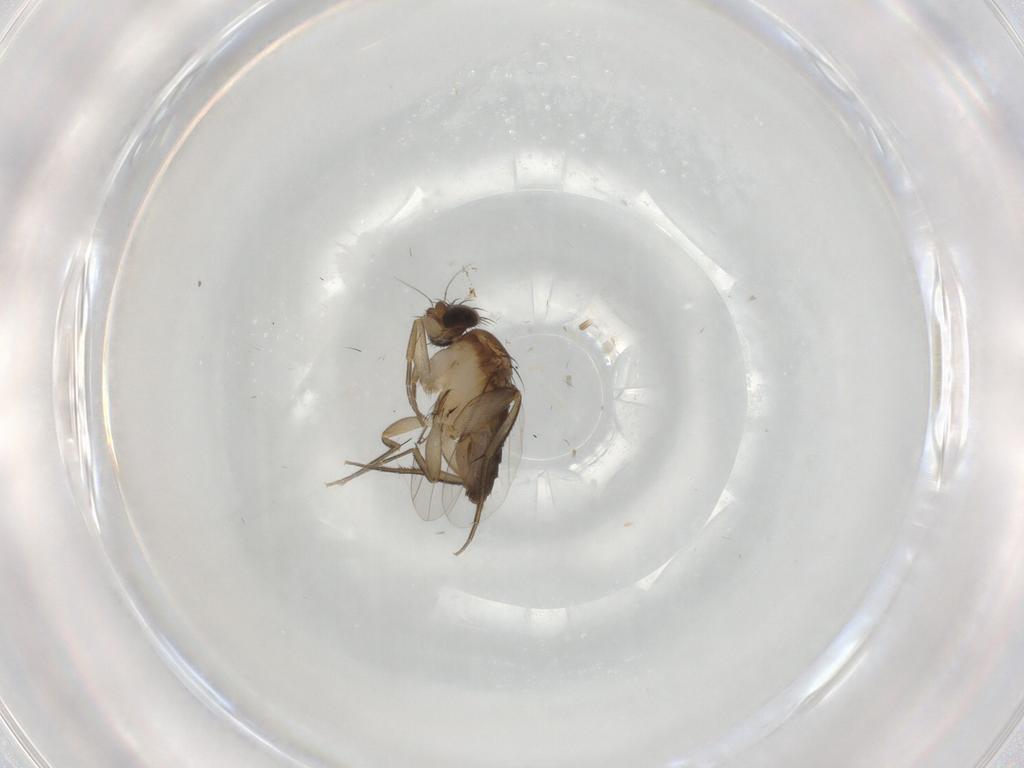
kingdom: Animalia
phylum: Arthropoda
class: Insecta
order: Diptera
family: Phoridae
